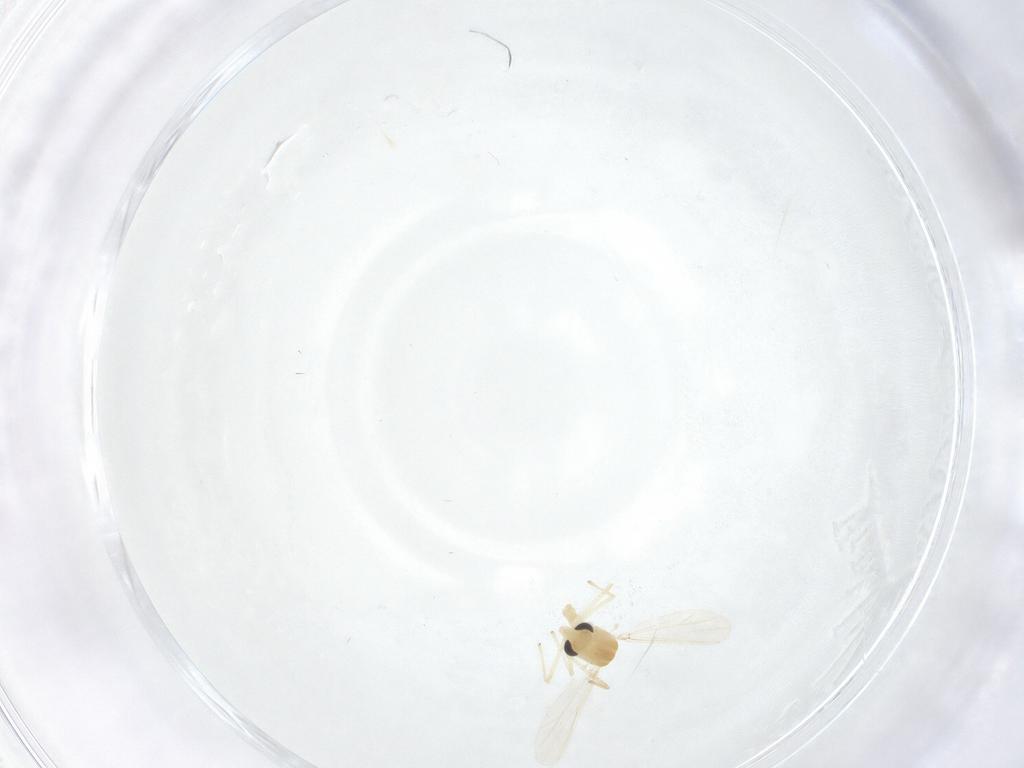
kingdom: Animalia
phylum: Arthropoda
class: Insecta
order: Diptera
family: Chironomidae
